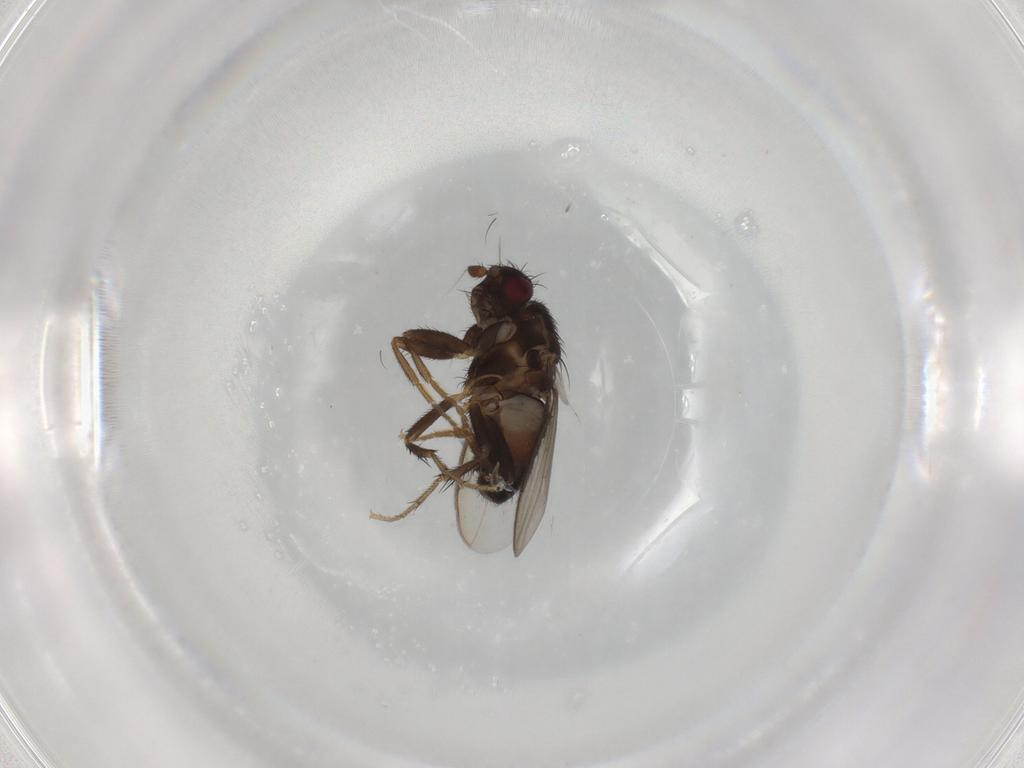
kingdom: Animalia
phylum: Arthropoda
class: Insecta
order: Diptera
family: Sphaeroceridae
